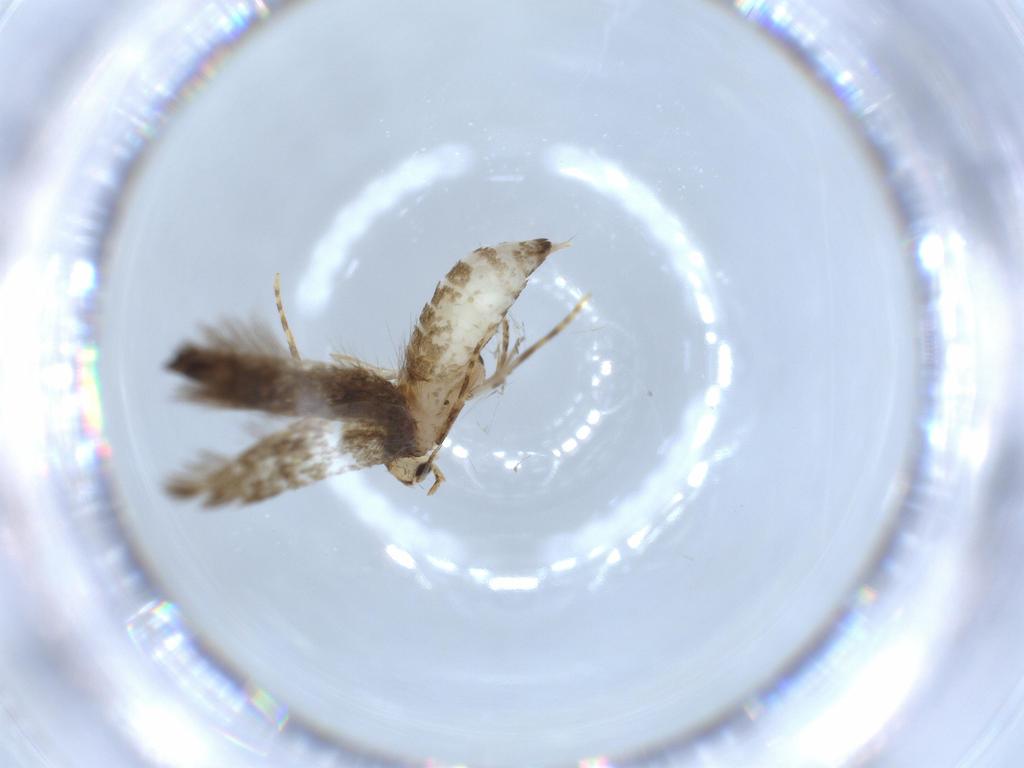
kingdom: Animalia
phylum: Arthropoda
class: Insecta
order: Lepidoptera
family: Tineidae
